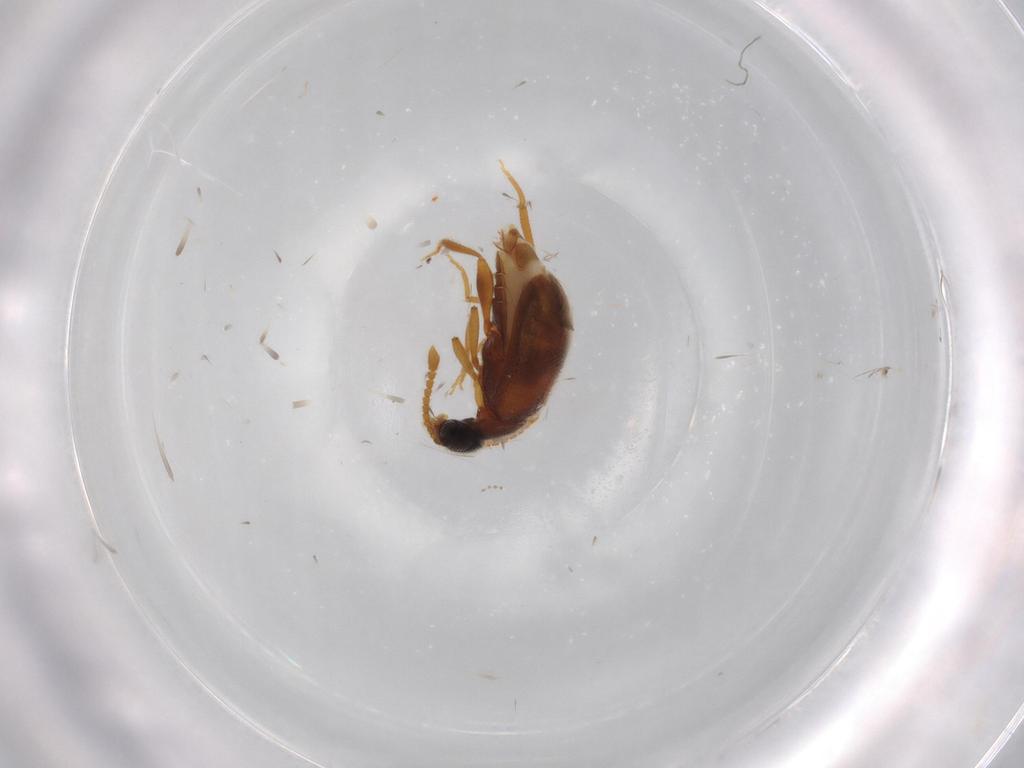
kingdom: Animalia
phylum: Arthropoda
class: Insecta
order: Coleoptera
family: Aderidae
